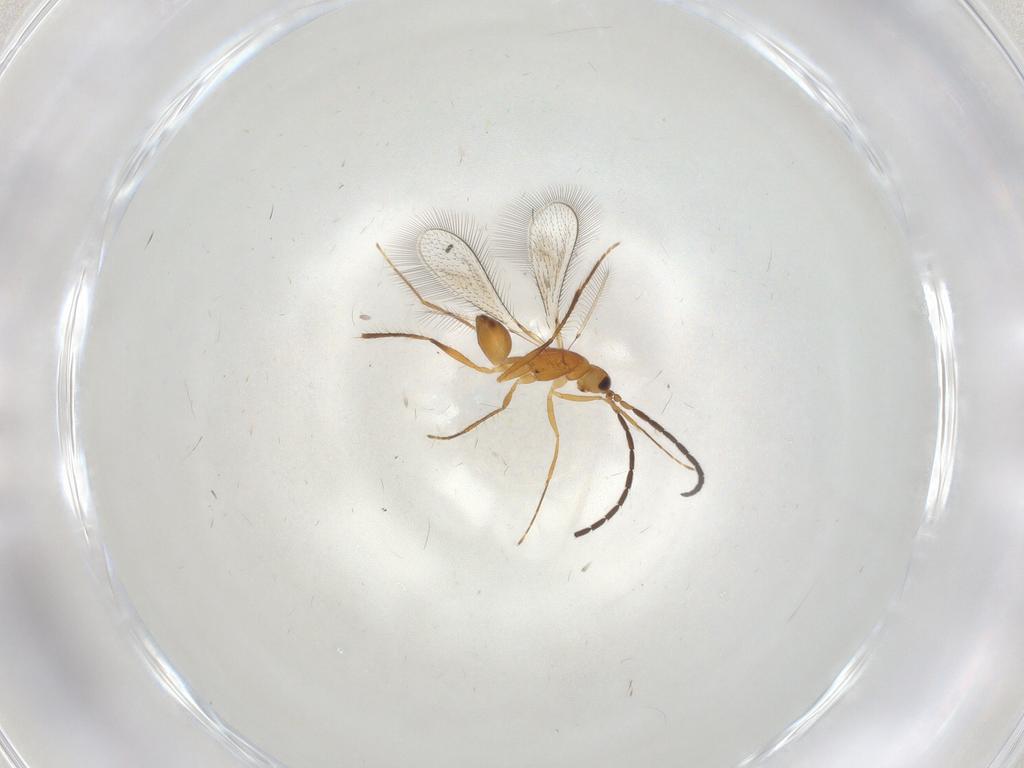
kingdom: Animalia
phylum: Arthropoda
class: Insecta
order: Hymenoptera
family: Mymaridae
